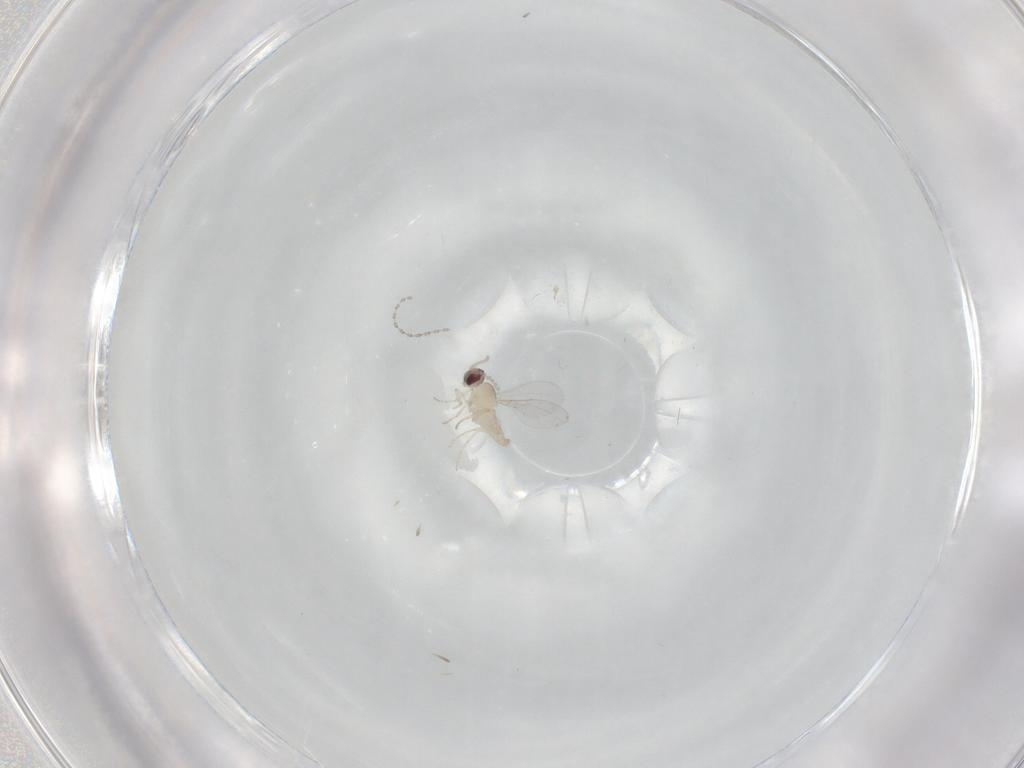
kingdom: Animalia
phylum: Arthropoda
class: Insecta
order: Diptera
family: Cecidomyiidae
